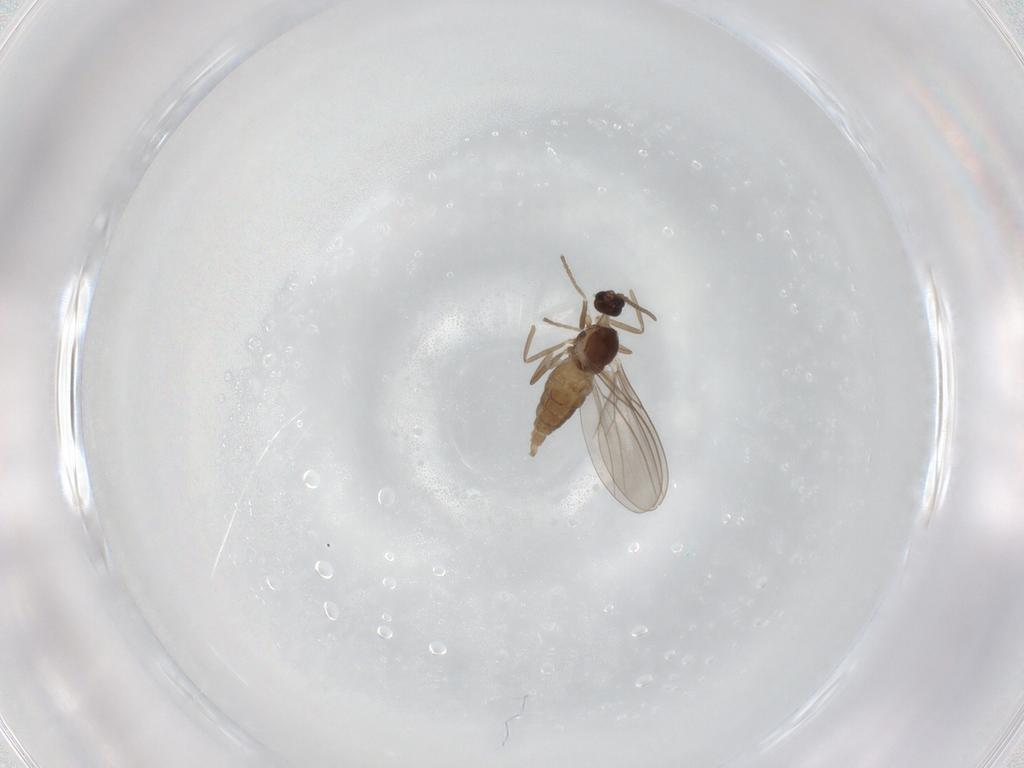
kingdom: Animalia
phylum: Arthropoda
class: Insecta
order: Diptera
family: Cecidomyiidae
